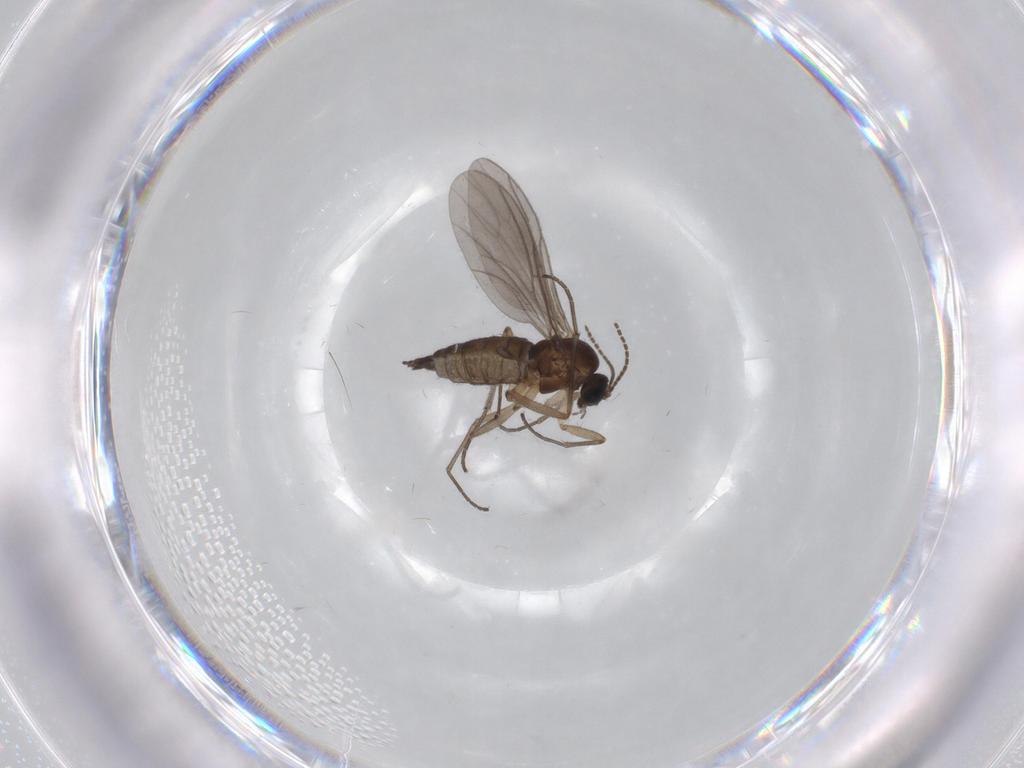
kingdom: Animalia
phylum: Arthropoda
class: Insecta
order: Diptera
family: Sciaridae
